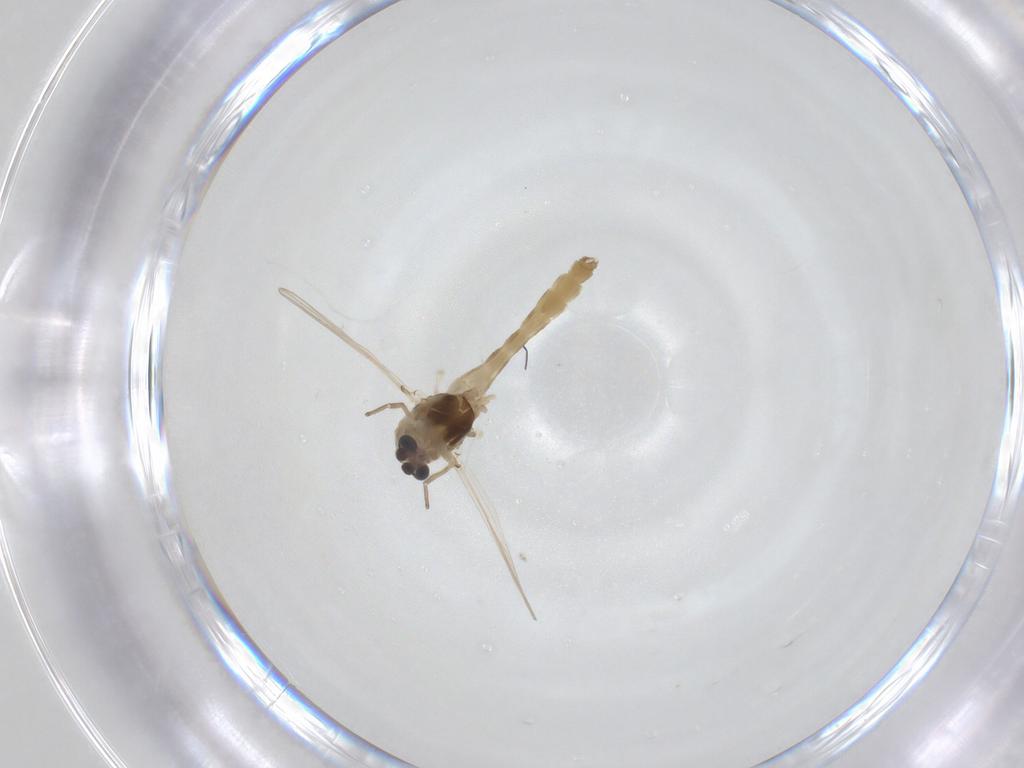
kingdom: Animalia
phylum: Arthropoda
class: Insecta
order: Diptera
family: Chironomidae
